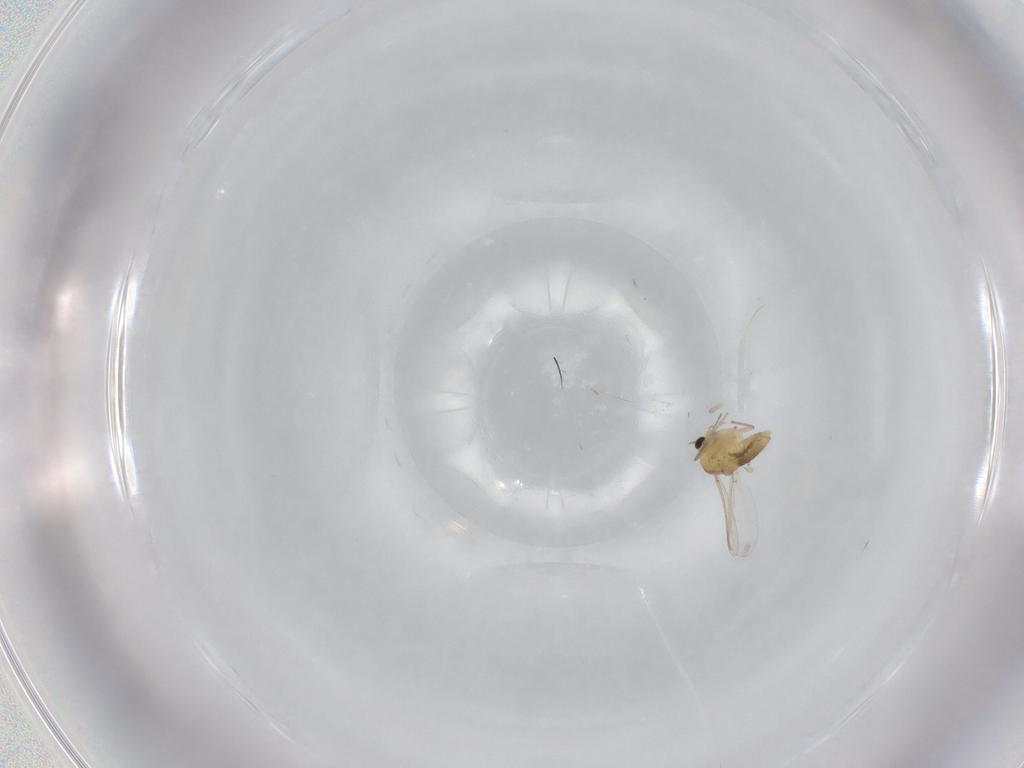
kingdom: Animalia
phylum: Arthropoda
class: Insecta
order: Diptera
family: Chironomidae
